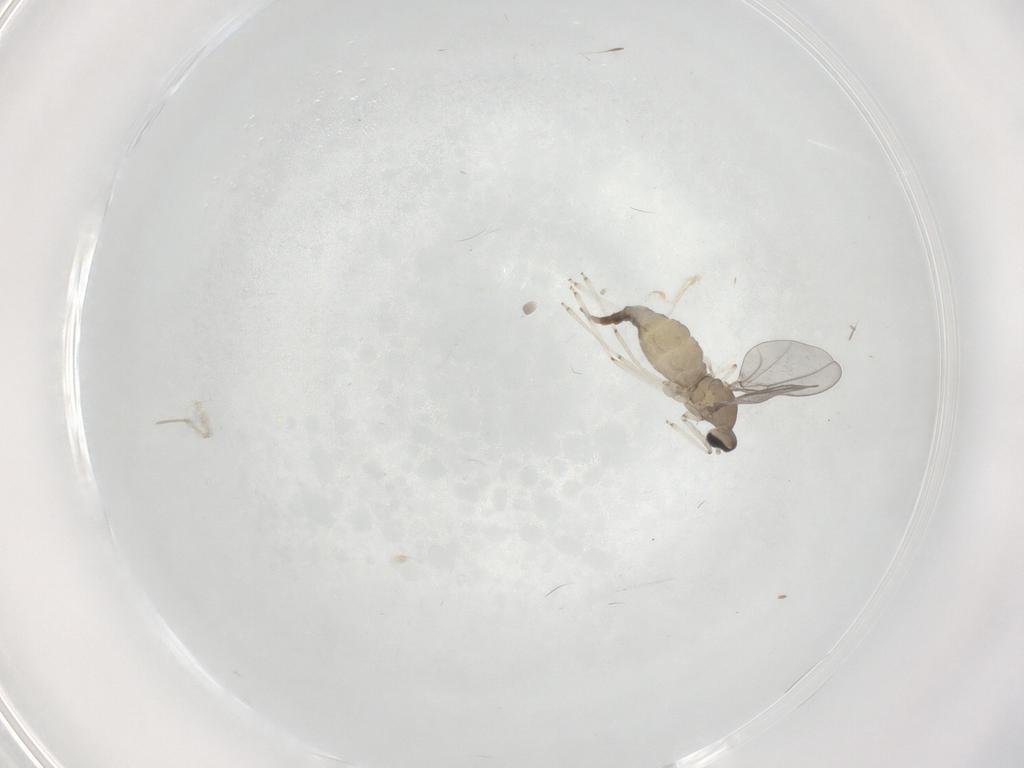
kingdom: Animalia
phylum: Arthropoda
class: Insecta
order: Diptera
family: Cecidomyiidae
